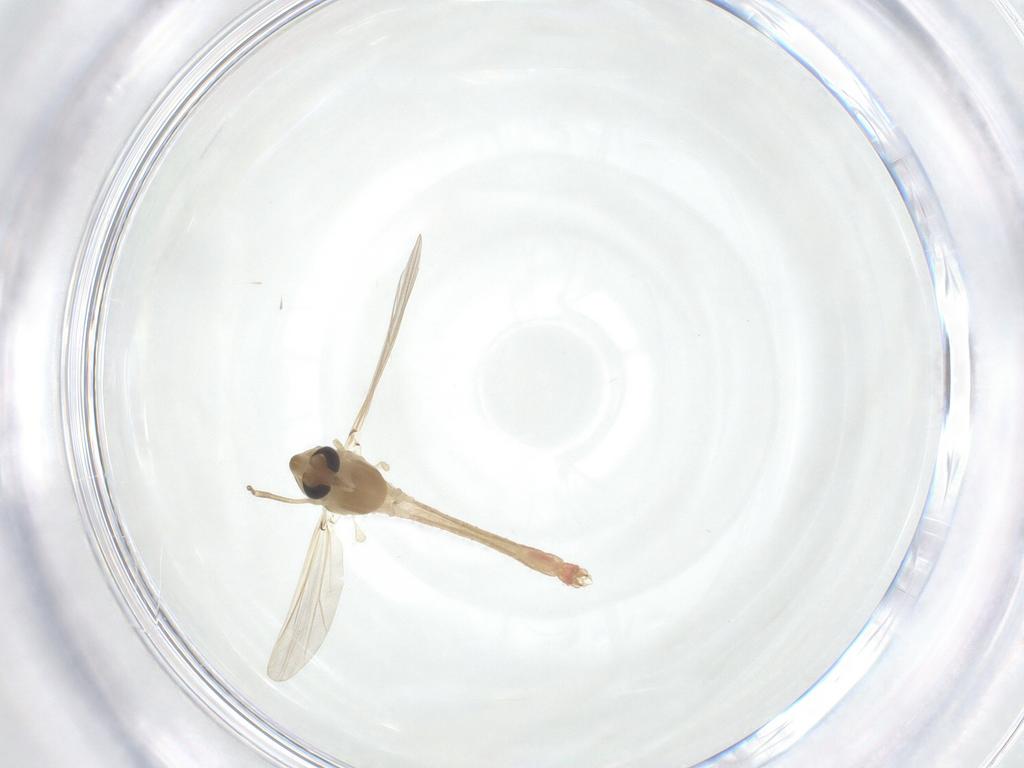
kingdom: Animalia
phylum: Arthropoda
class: Insecta
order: Diptera
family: Chironomidae
